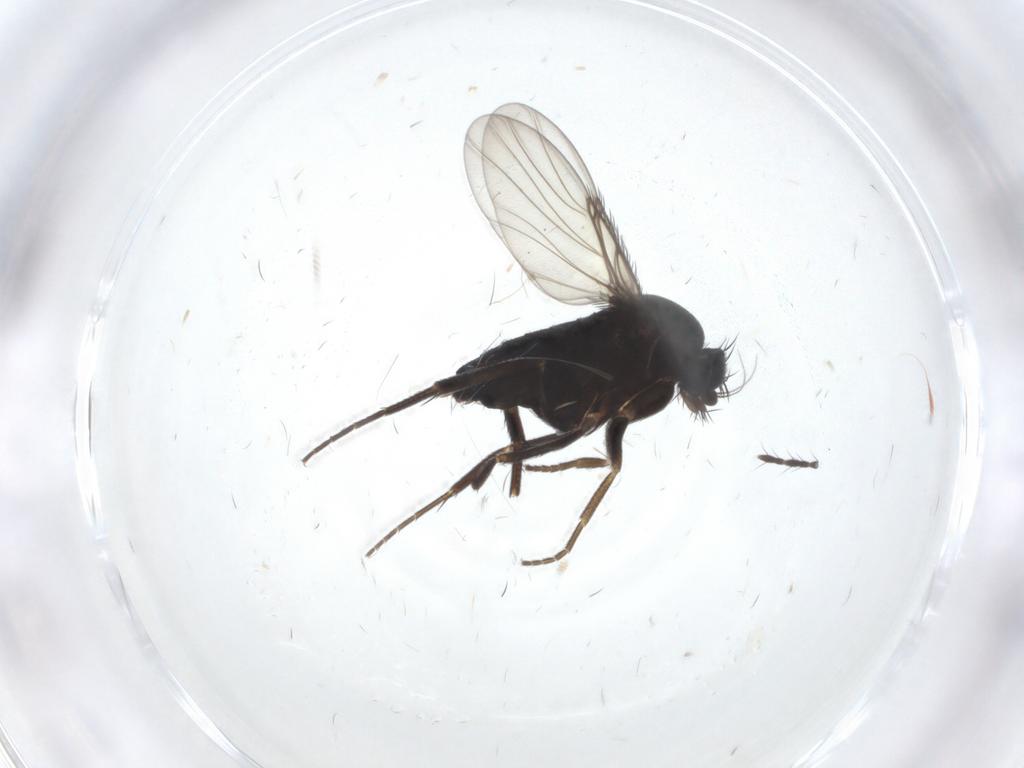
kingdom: Animalia
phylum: Arthropoda
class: Insecta
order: Diptera
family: Phoridae
